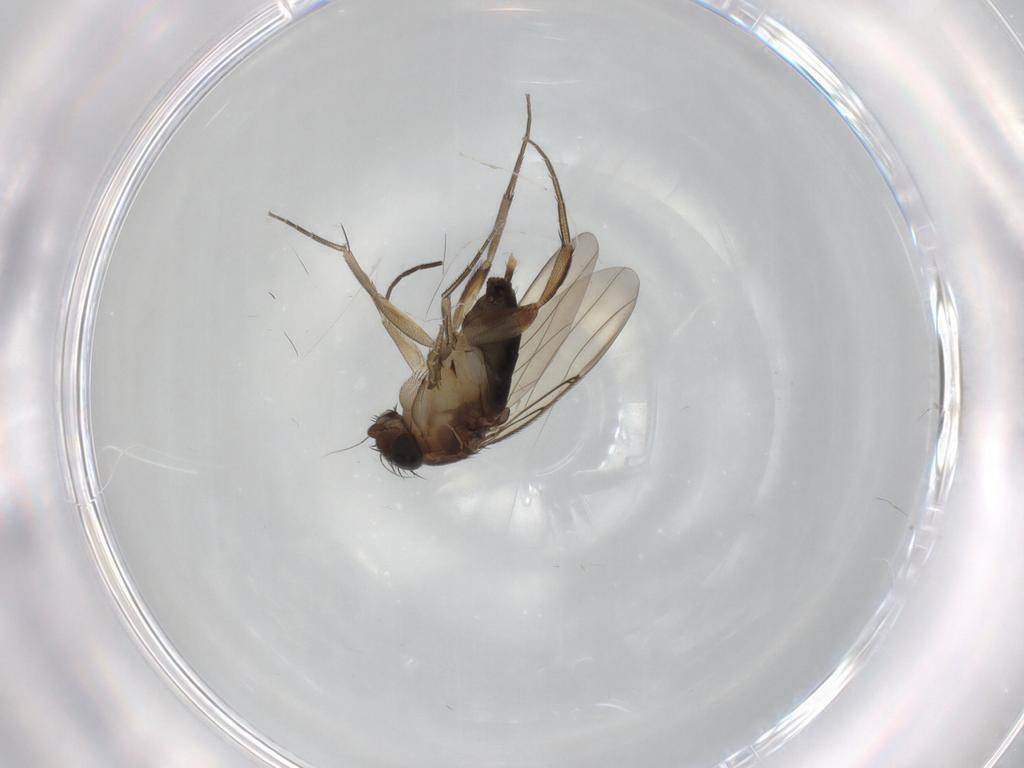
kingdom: Animalia
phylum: Arthropoda
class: Insecta
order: Diptera
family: Phoridae
